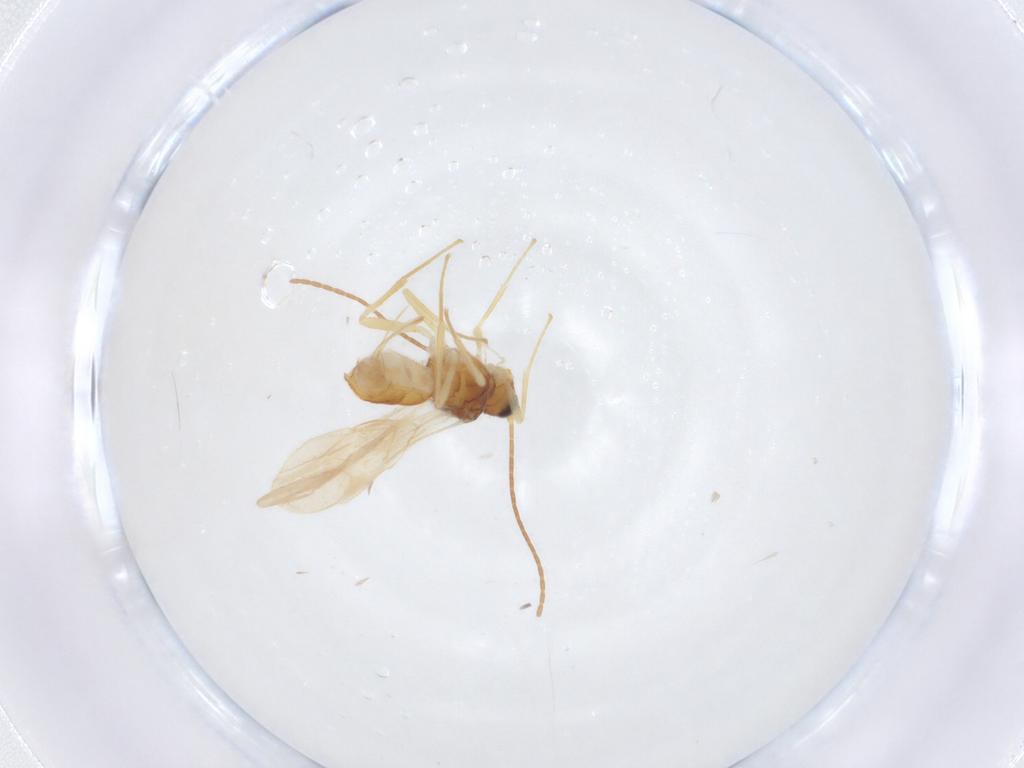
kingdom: Animalia
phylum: Arthropoda
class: Insecta
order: Hymenoptera
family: Braconidae
